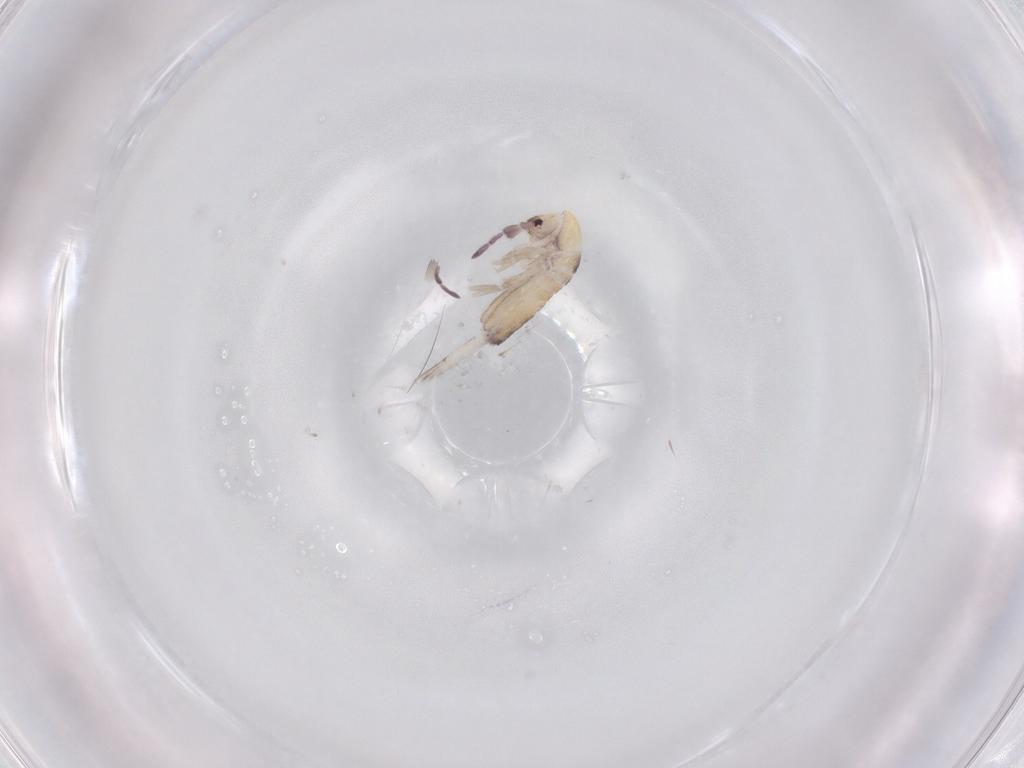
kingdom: Animalia
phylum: Arthropoda
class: Collembola
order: Entomobryomorpha
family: Entomobryidae
